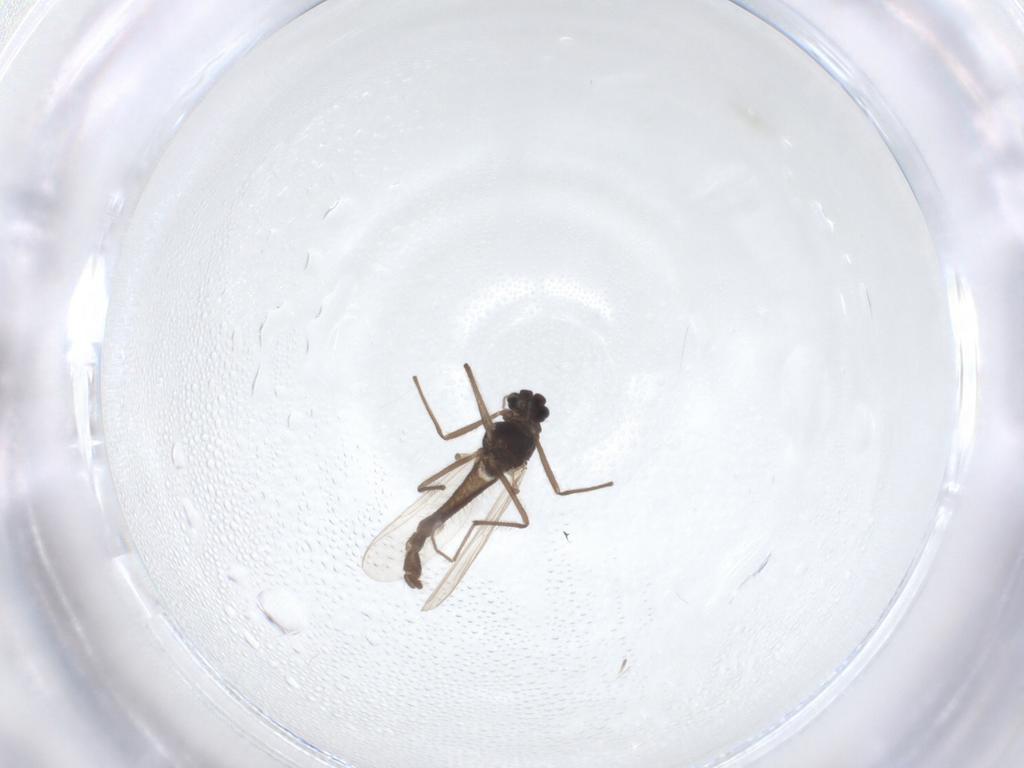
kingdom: Animalia
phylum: Arthropoda
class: Insecta
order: Diptera
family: Chironomidae
